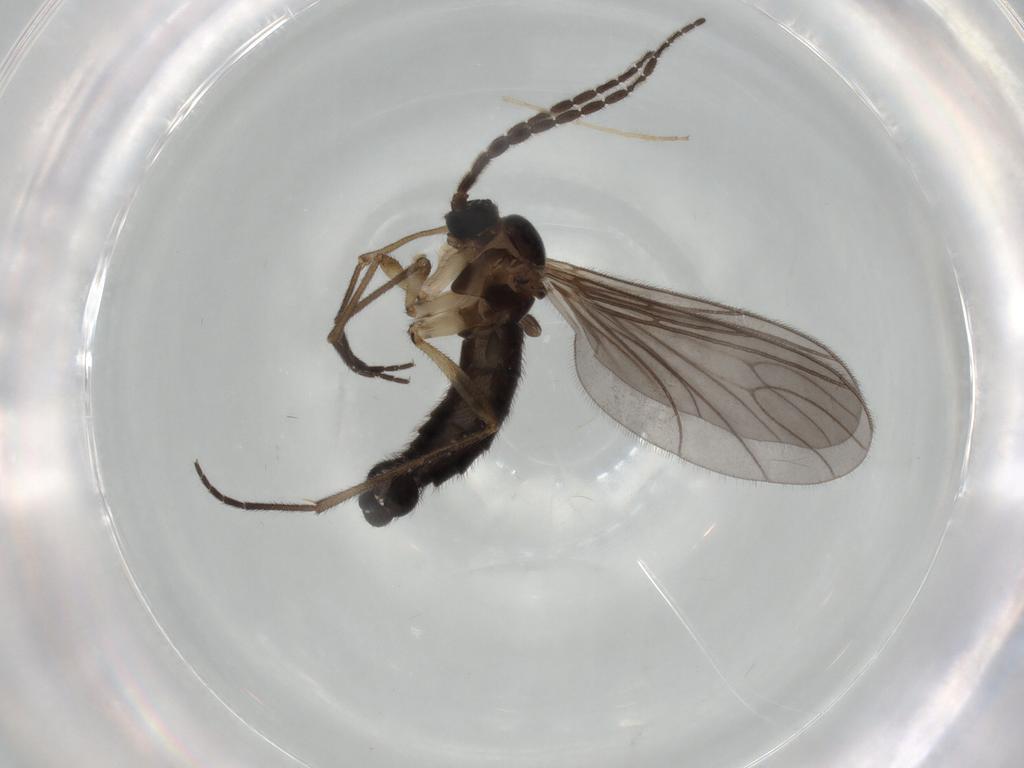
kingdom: Animalia
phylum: Arthropoda
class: Insecta
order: Diptera
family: Sciaridae
